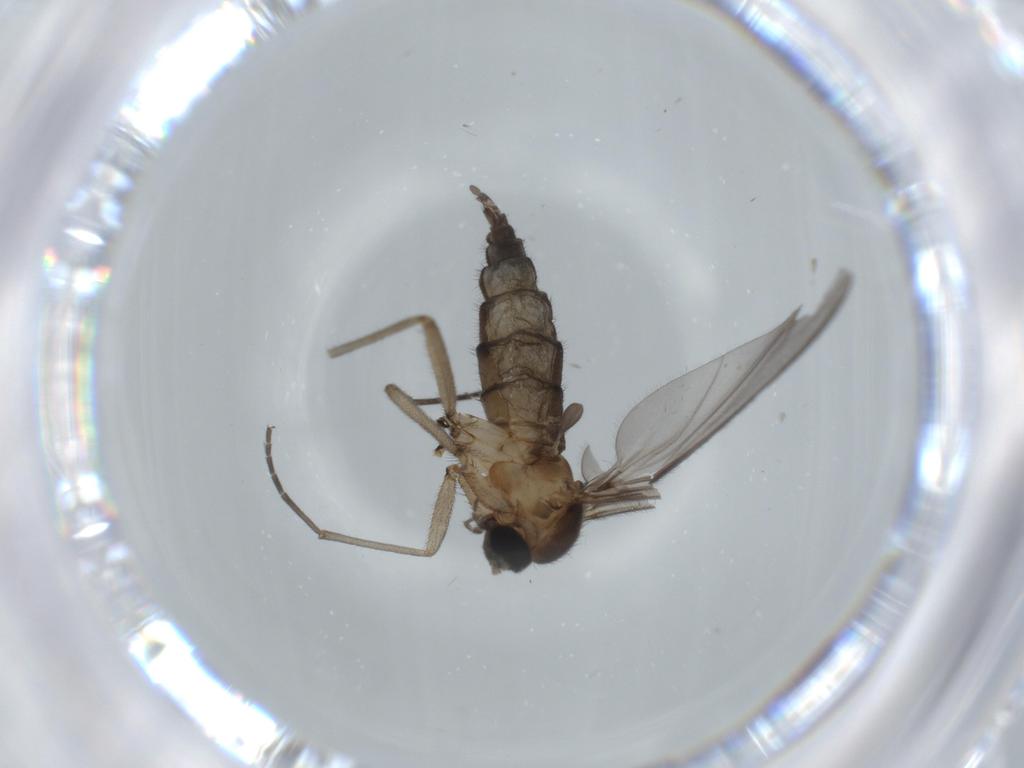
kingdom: Animalia
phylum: Arthropoda
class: Insecta
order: Diptera
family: Sciaridae
